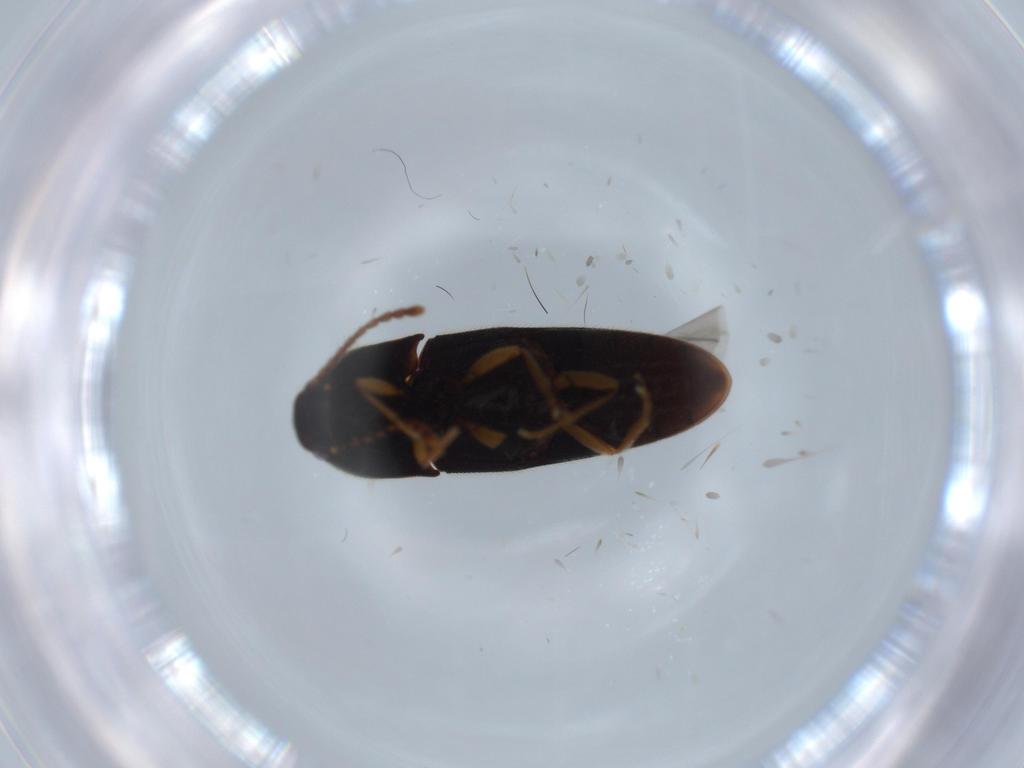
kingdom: Animalia
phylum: Arthropoda
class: Insecta
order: Coleoptera
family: Elateridae
